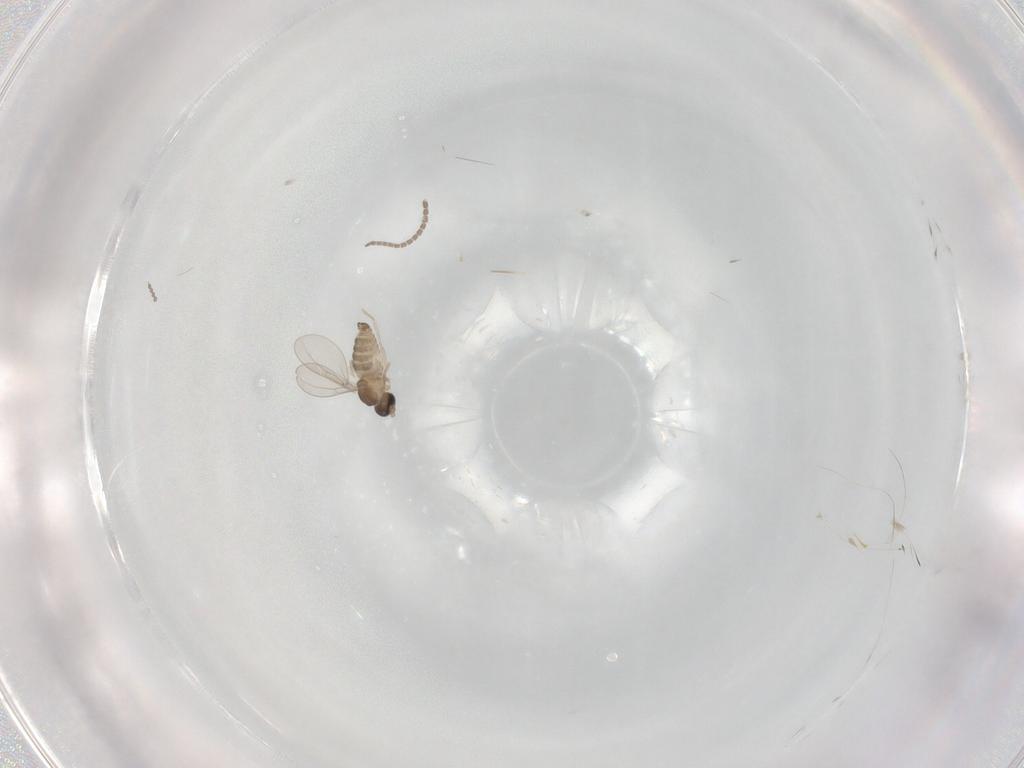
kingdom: Animalia
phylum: Arthropoda
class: Insecta
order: Diptera
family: Cecidomyiidae
